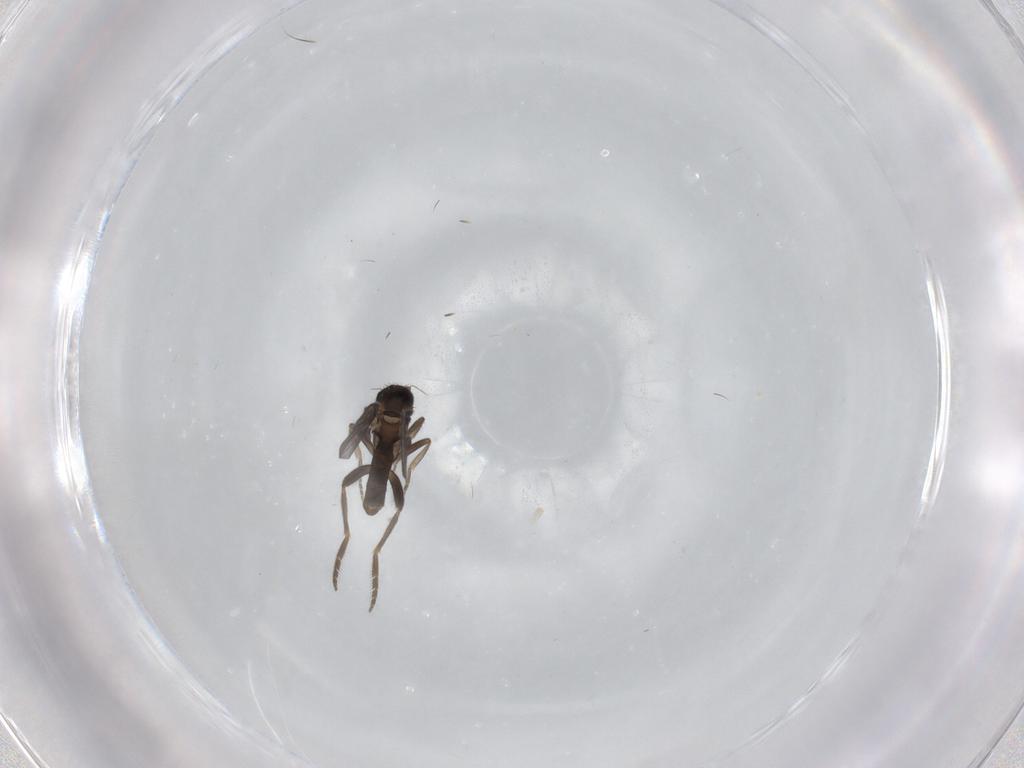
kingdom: Animalia
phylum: Arthropoda
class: Insecta
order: Diptera
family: Phoridae
